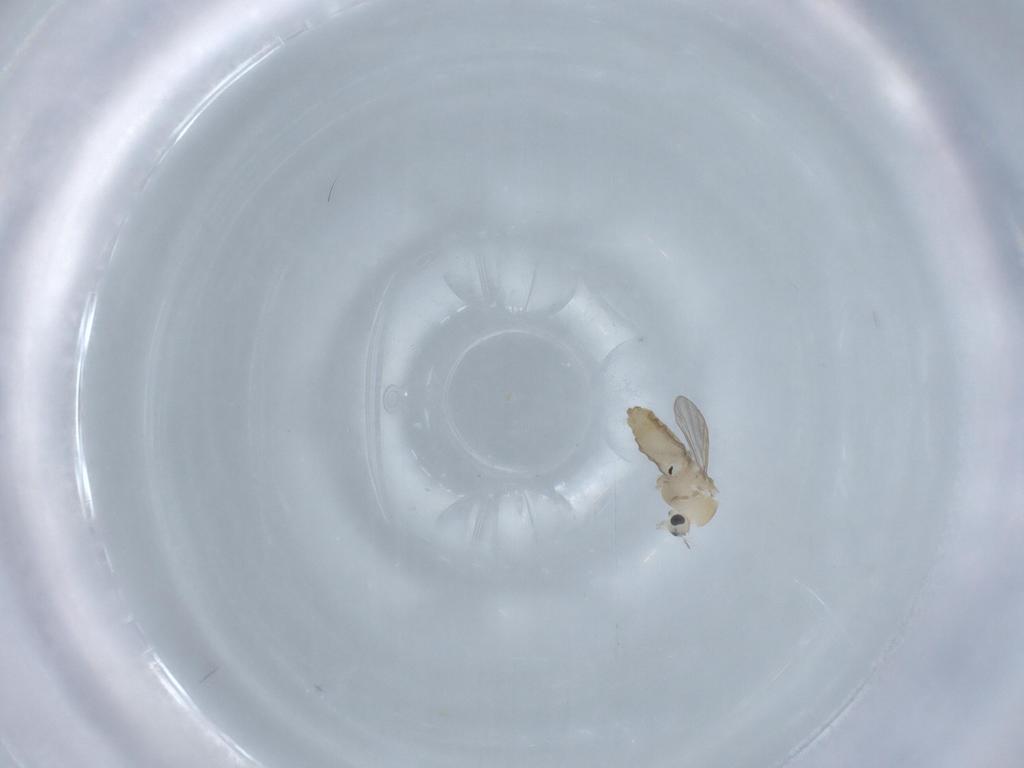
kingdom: Animalia
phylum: Arthropoda
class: Insecta
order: Diptera
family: Chironomidae
